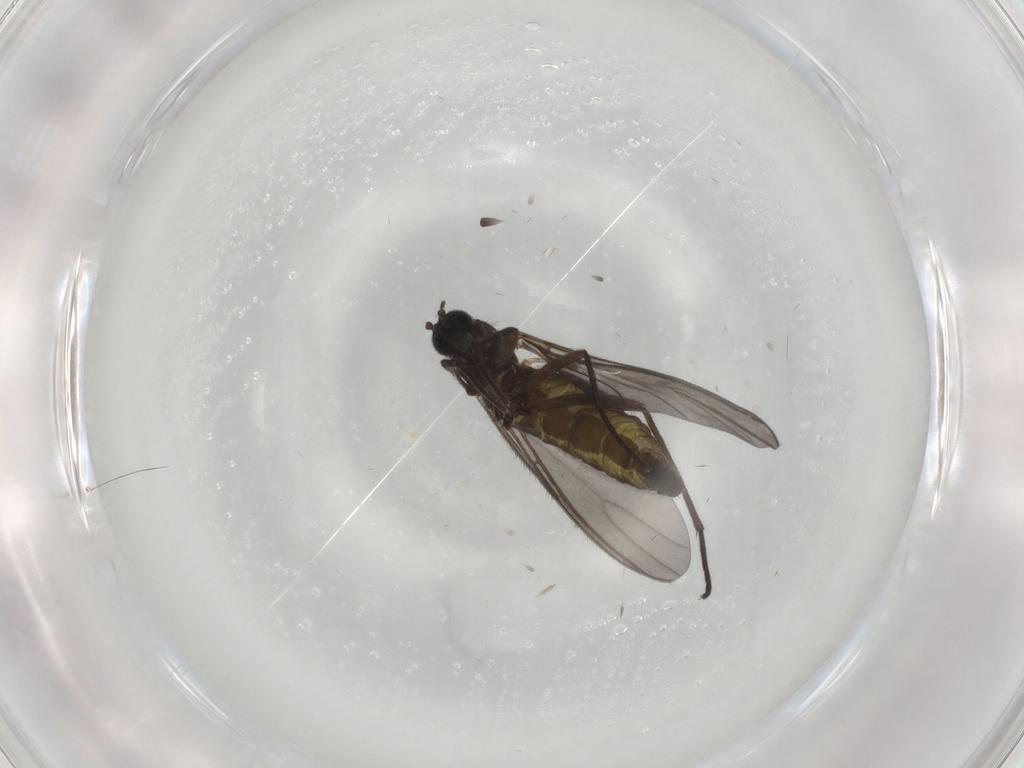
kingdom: Animalia
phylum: Arthropoda
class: Insecta
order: Diptera
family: Sciaridae
